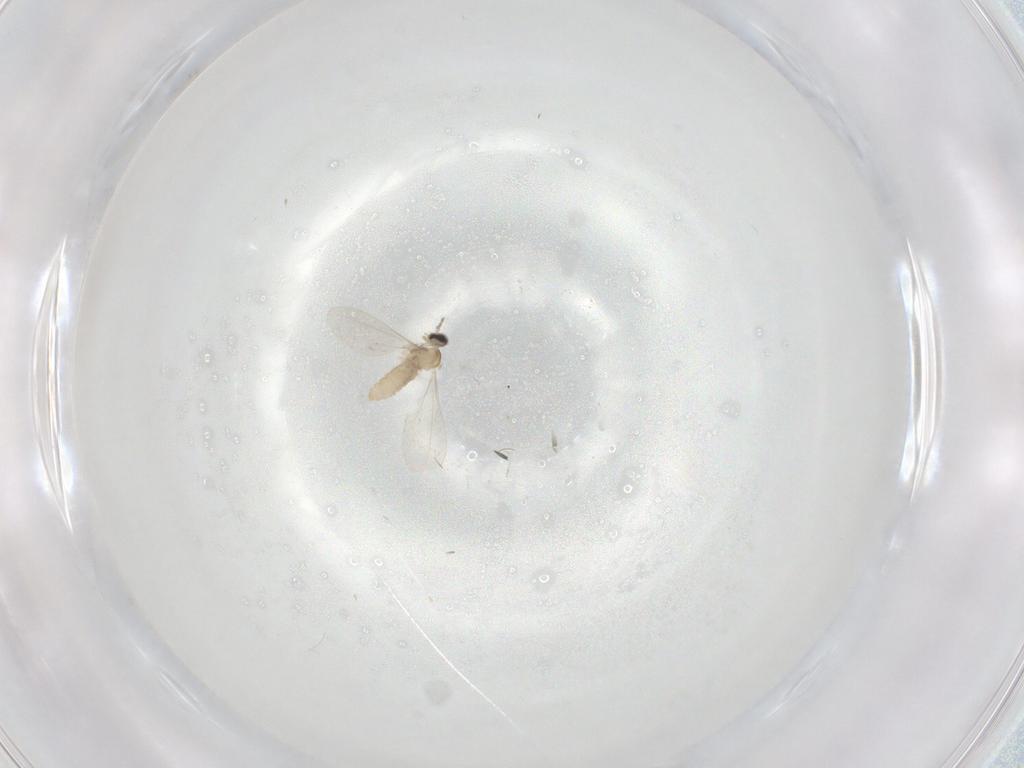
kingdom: Animalia
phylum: Arthropoda
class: Insecta
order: Diptera
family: Cecidomyiidae
